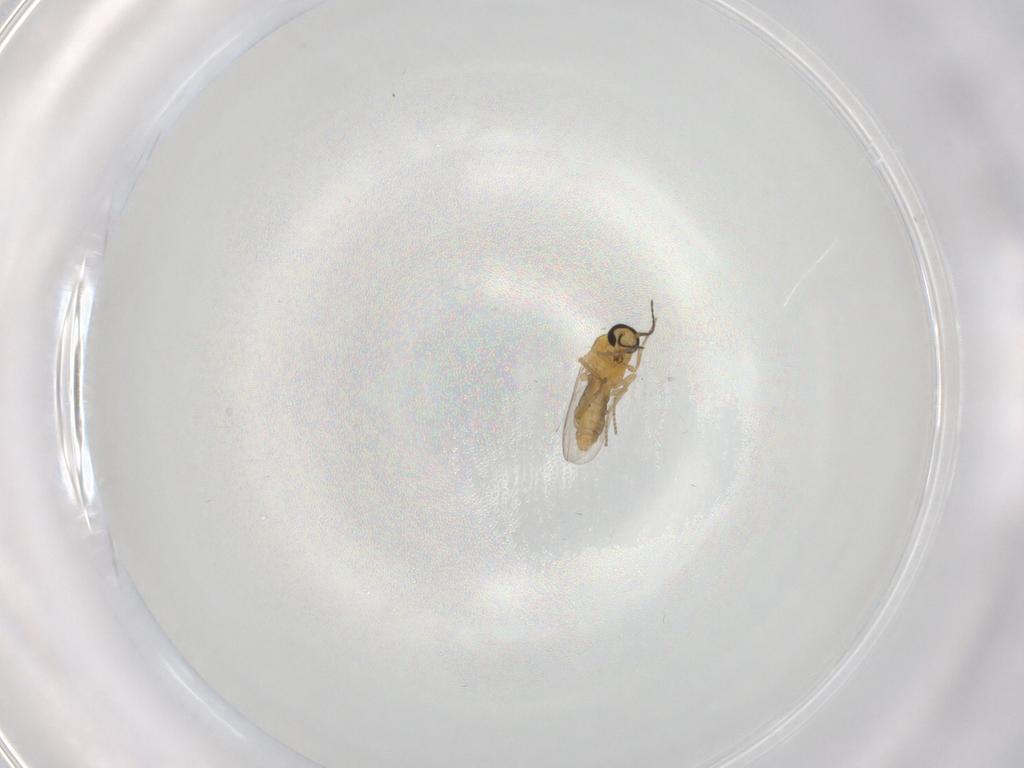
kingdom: Animalia
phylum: Arthropoda
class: Insecta
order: Diptera
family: Ceratopogonidae
